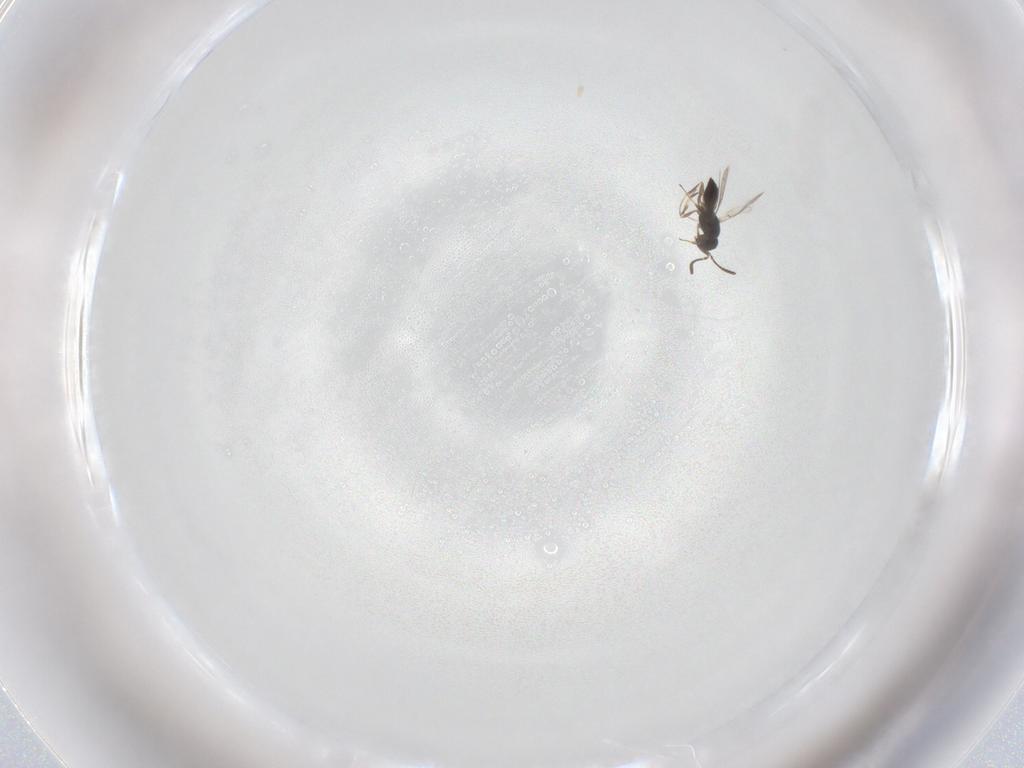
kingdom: Animalia
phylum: Arthropoda
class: Insecta
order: Hymenoptera
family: Scelionidae
